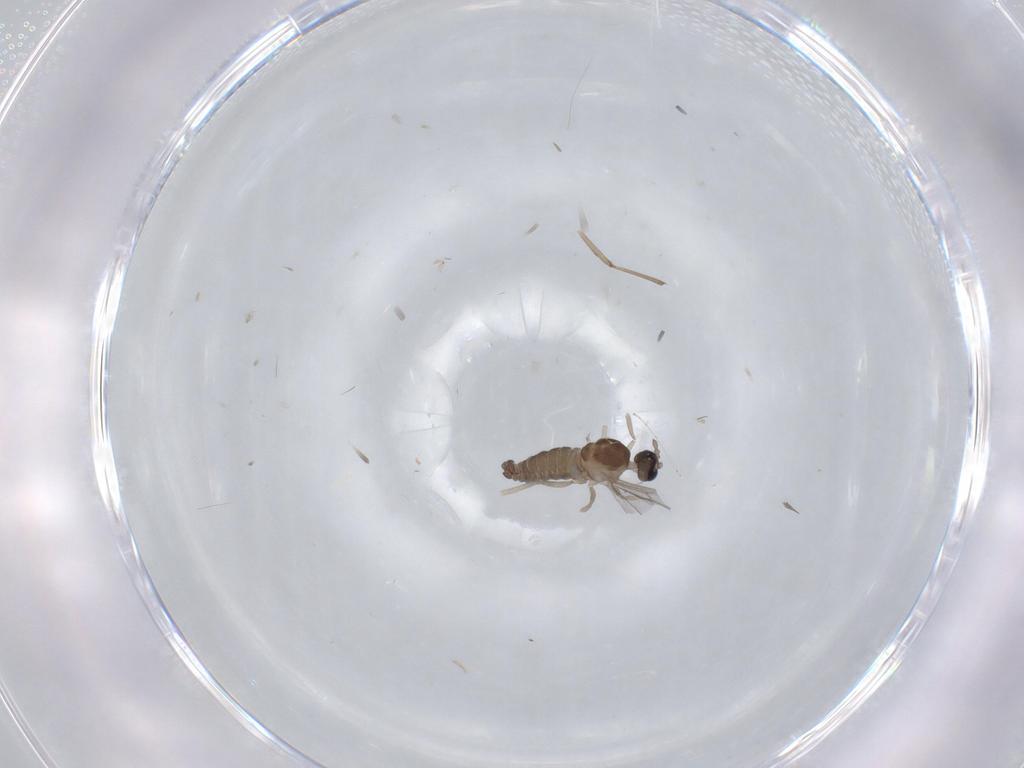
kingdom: Animalia
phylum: Arthropoda
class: Insecta
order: Diptera
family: Cecidomyiidae
